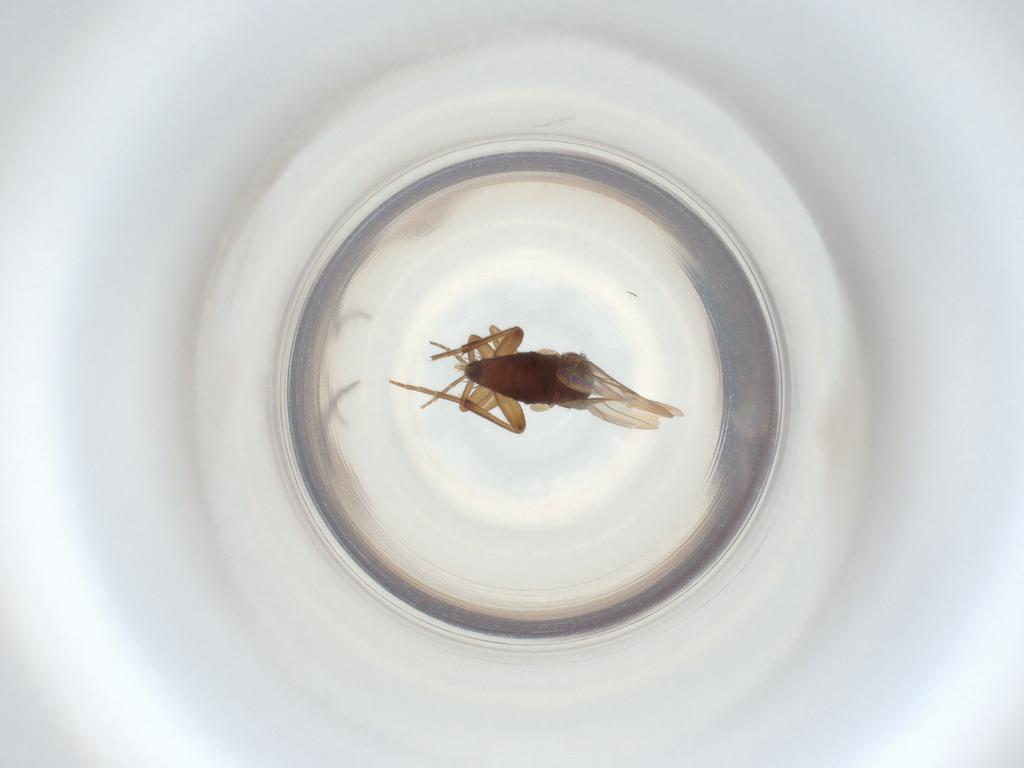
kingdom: Animalia
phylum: Arthropoda
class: Insecta
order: Diptera
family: Phoridae
